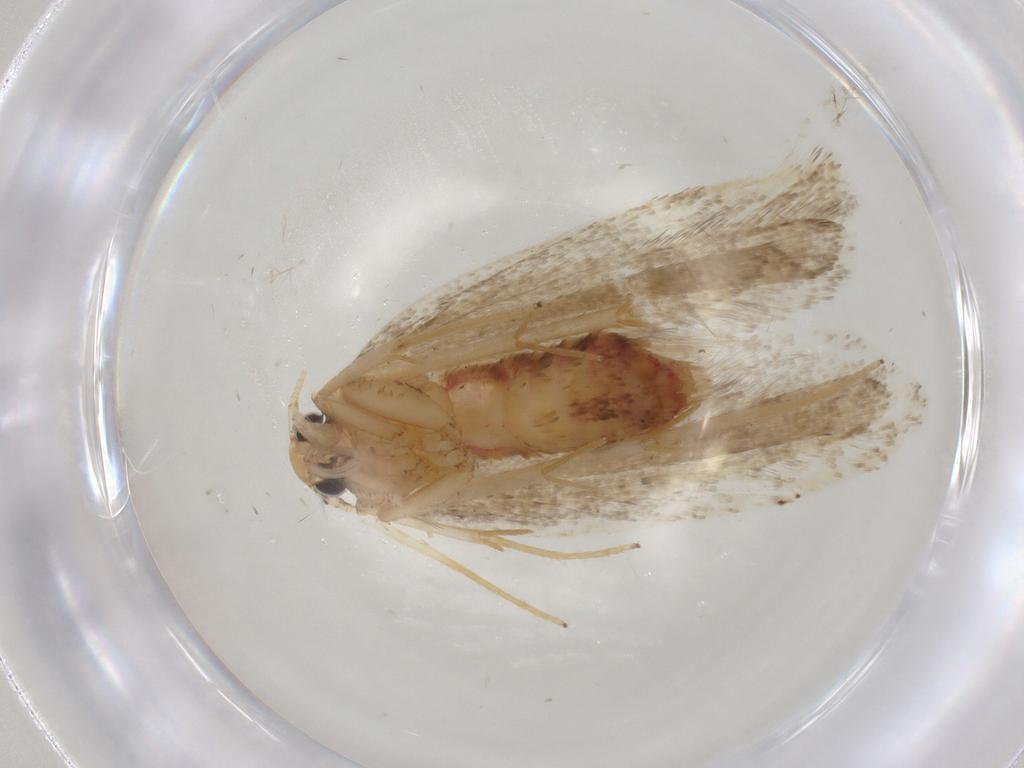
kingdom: Animalia
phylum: Arthropoda
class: Insecta
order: Lepidoptera
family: Lecithoceridae
